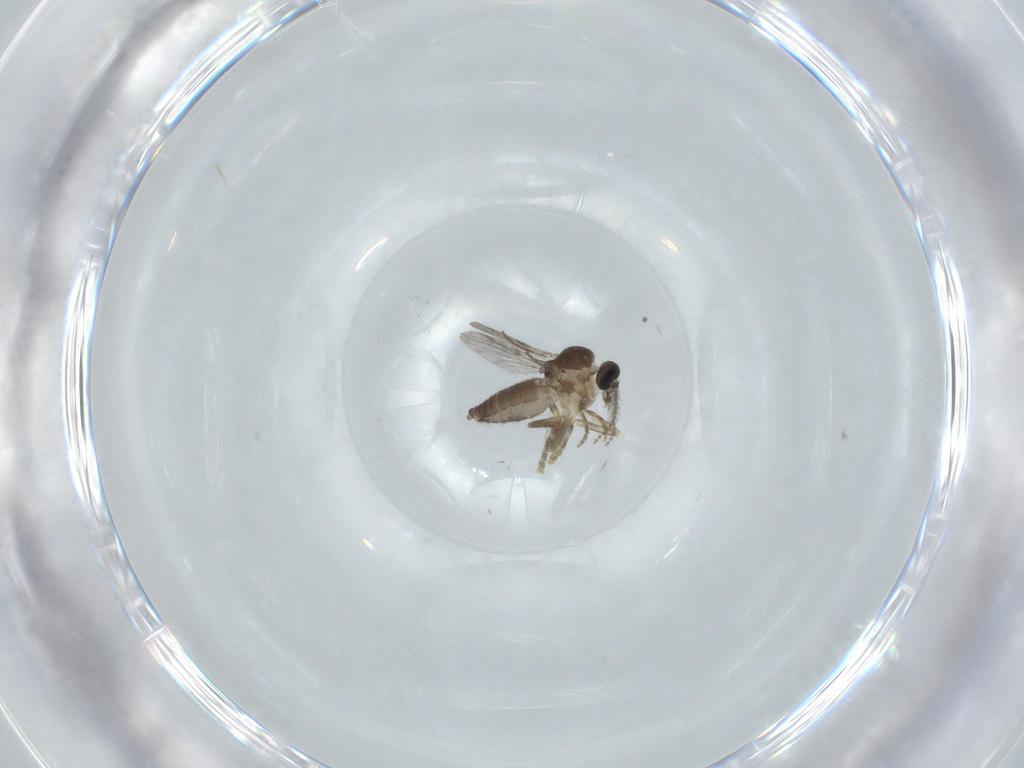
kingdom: Animalia
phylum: Arthropoda
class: Insecta
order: Diptera
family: Ceratopogonidae
